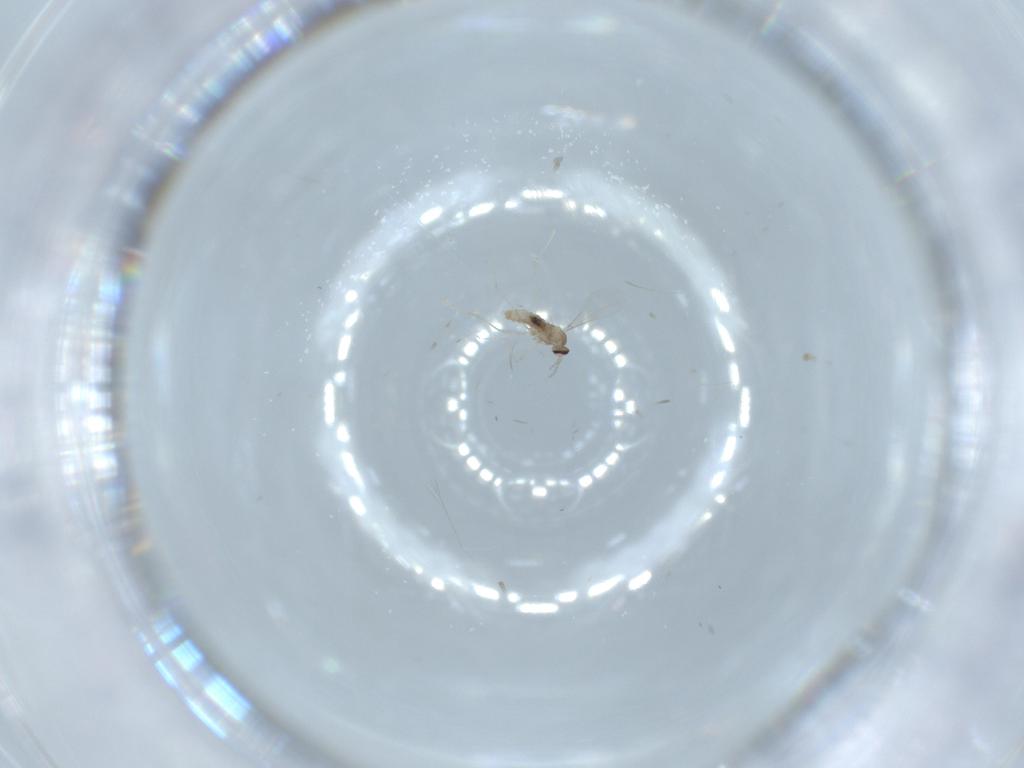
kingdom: Animalia
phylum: Arthropoda
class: Insecta
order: Diptera
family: Cecidomyiidae
